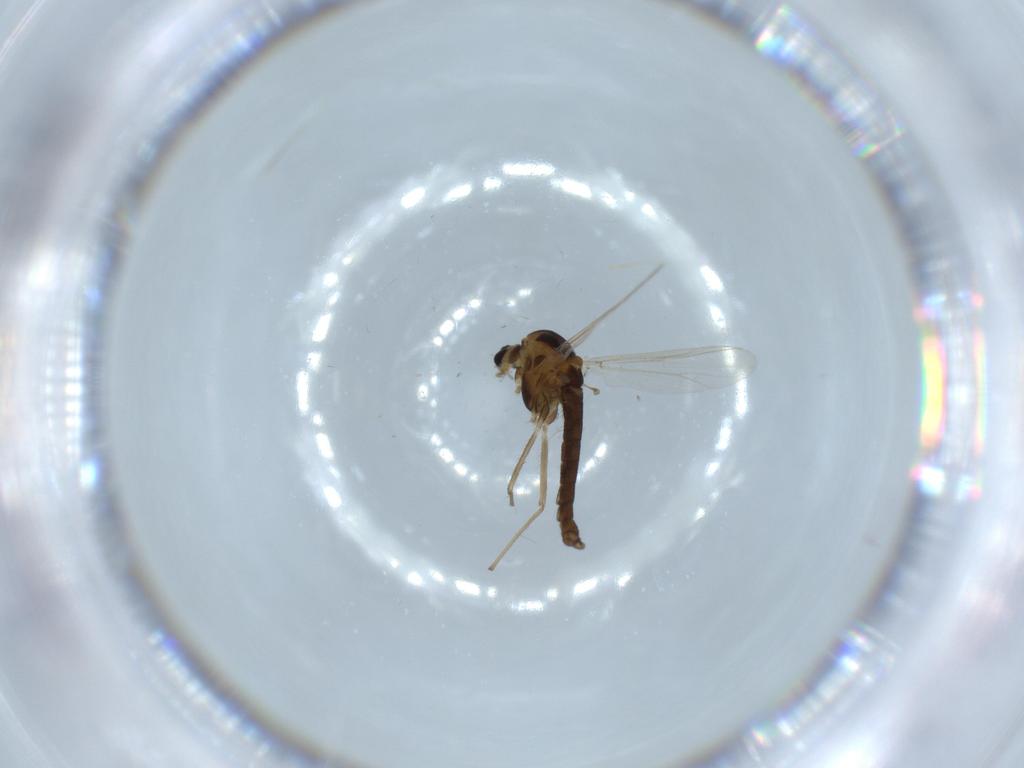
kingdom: Animalia
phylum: Arthropoda
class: Insecta
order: Diptera
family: Chironomidae
